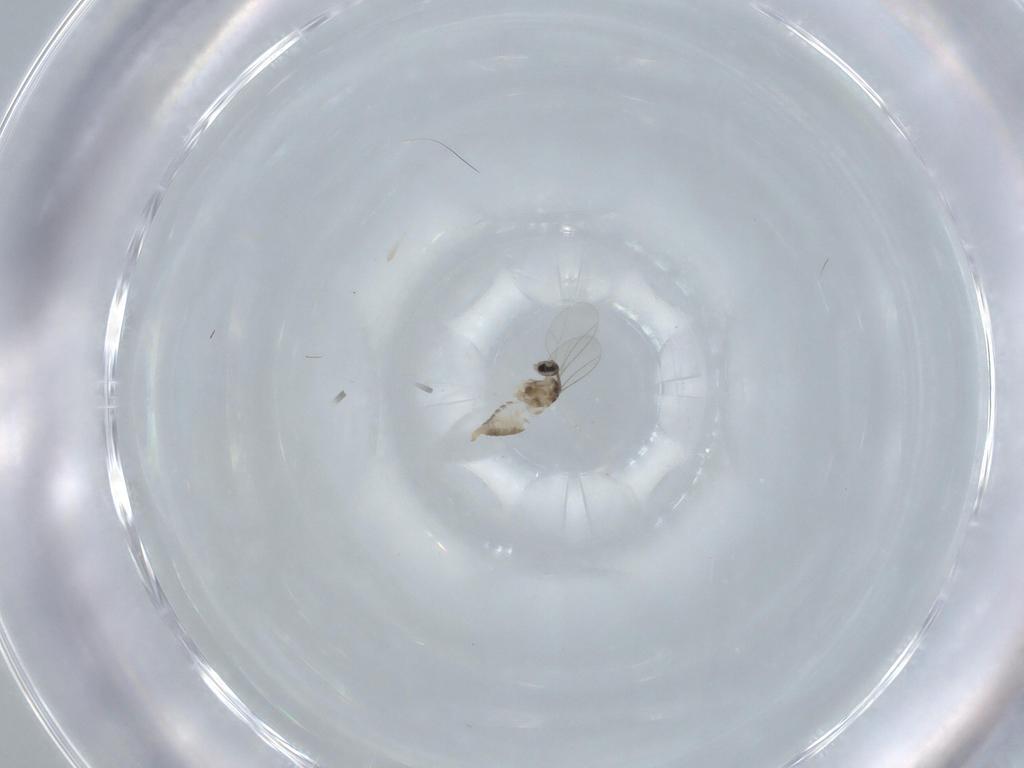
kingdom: Animalia
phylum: Arthropoda
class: Insecta
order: Diptera
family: Cecidomyiidae
